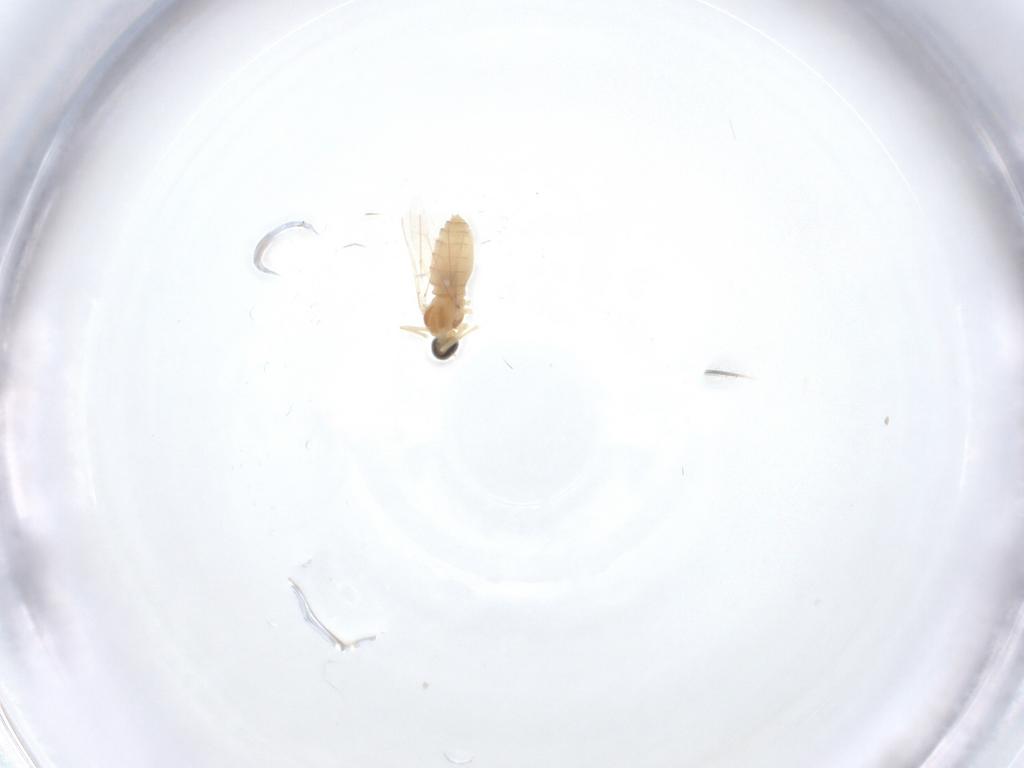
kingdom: Animalia
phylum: Arthropoda
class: Insecta
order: Diptera
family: Cecidomyiidae
